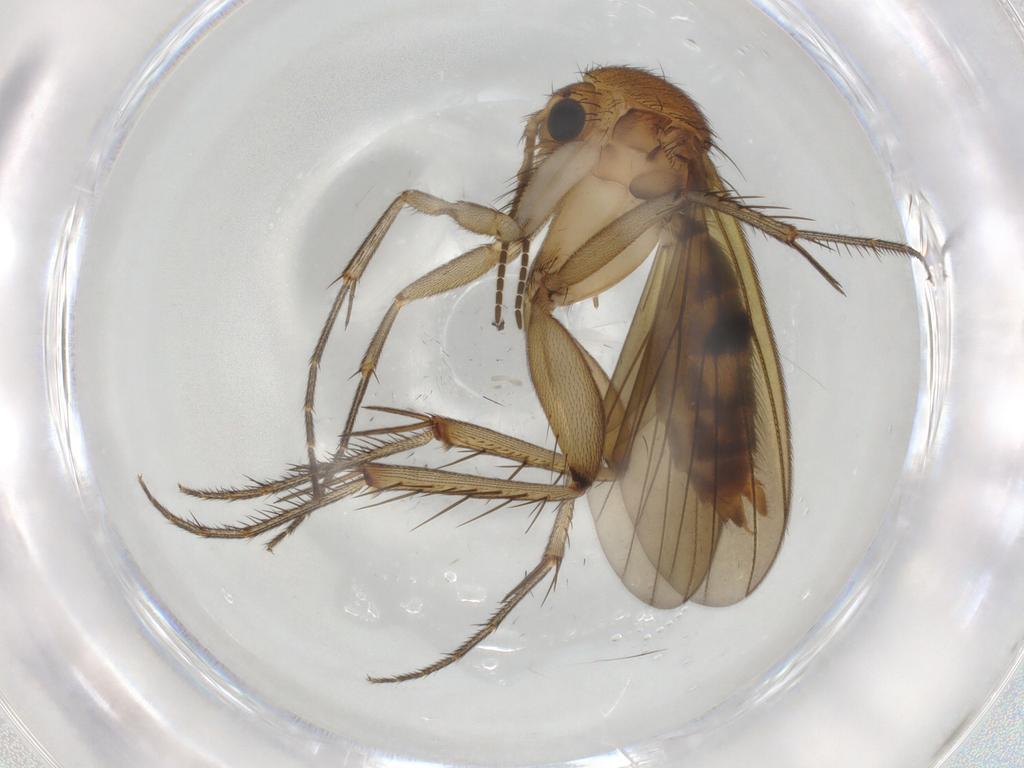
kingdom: Animalia
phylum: Arthropoda
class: Insecta
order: Diptera
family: Mycetophilidae
